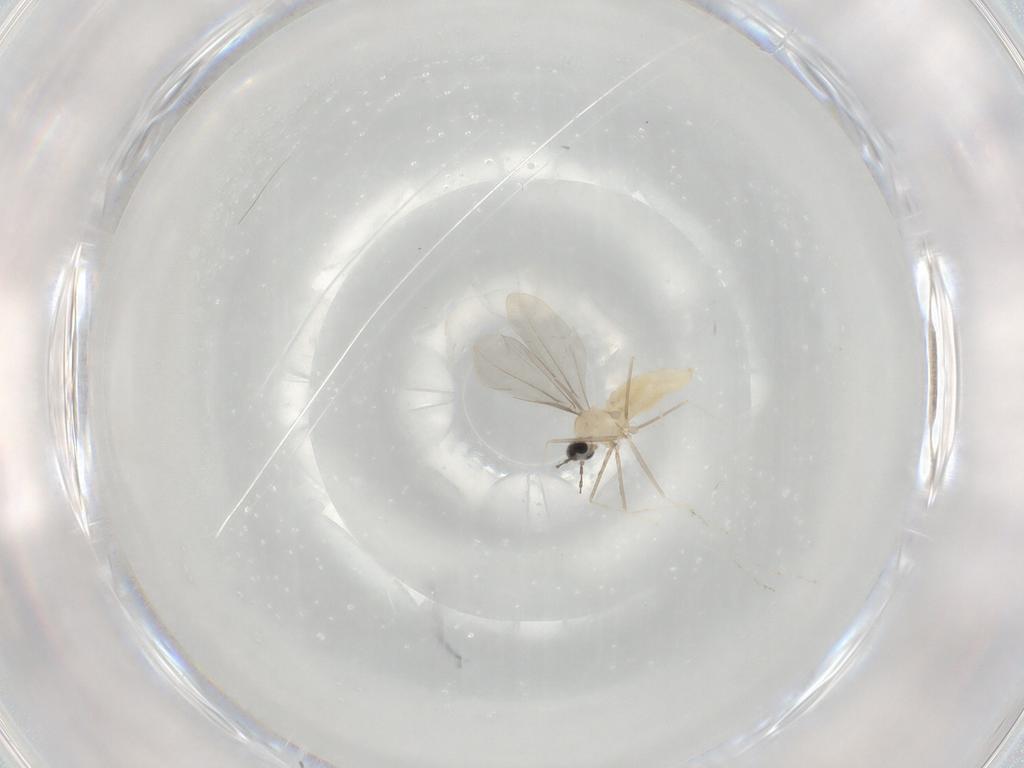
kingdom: Animalia
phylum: Arthropoda
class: Insecta
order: Diptera
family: Cecidomyiidae
